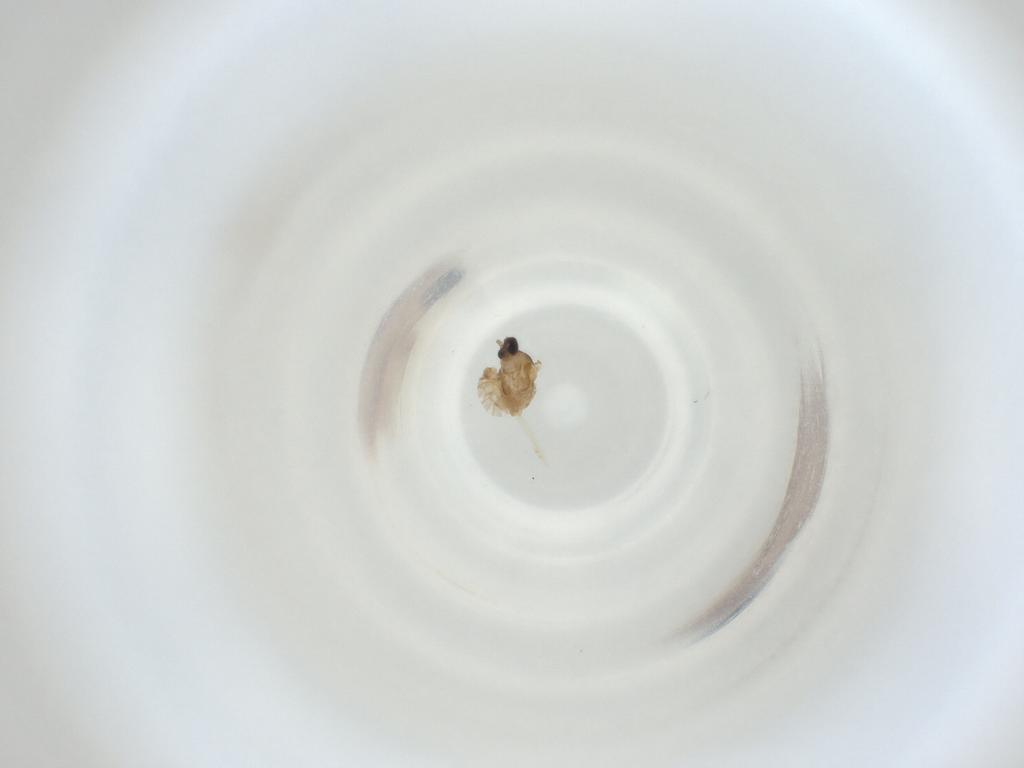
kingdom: Animalia
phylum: Arthropoda
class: Insecta
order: Diptera
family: Cecidomyiidae
